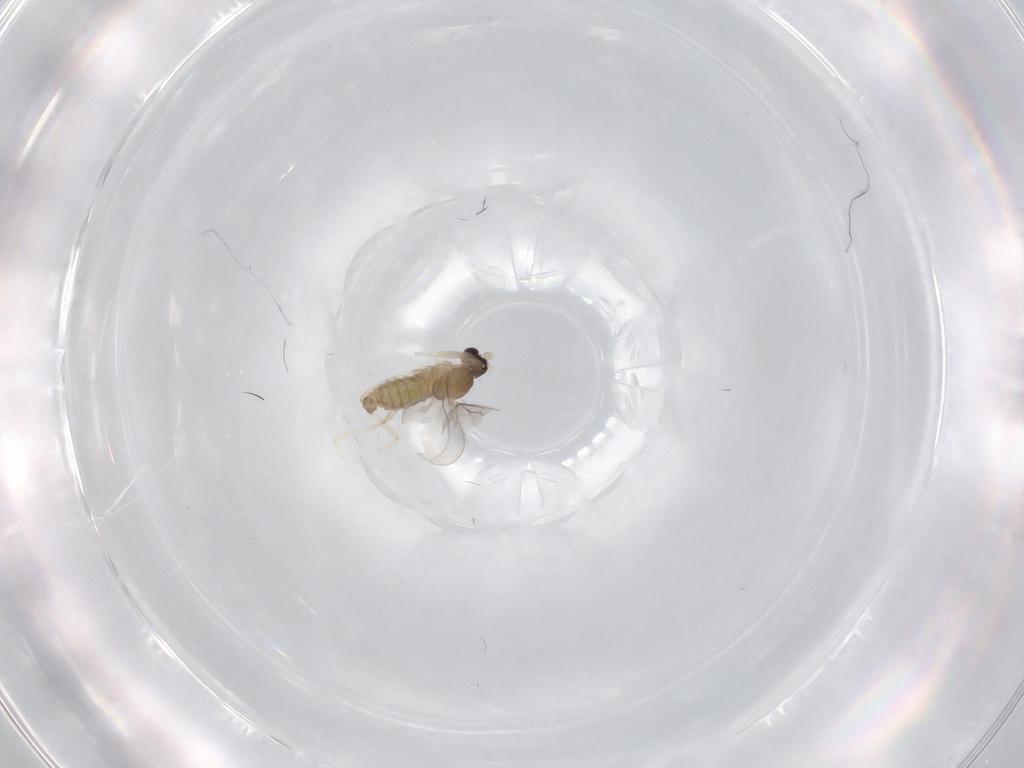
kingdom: Animalia
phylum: Arthropoda
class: Insecta
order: Diptera
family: Cecidomyiidae
